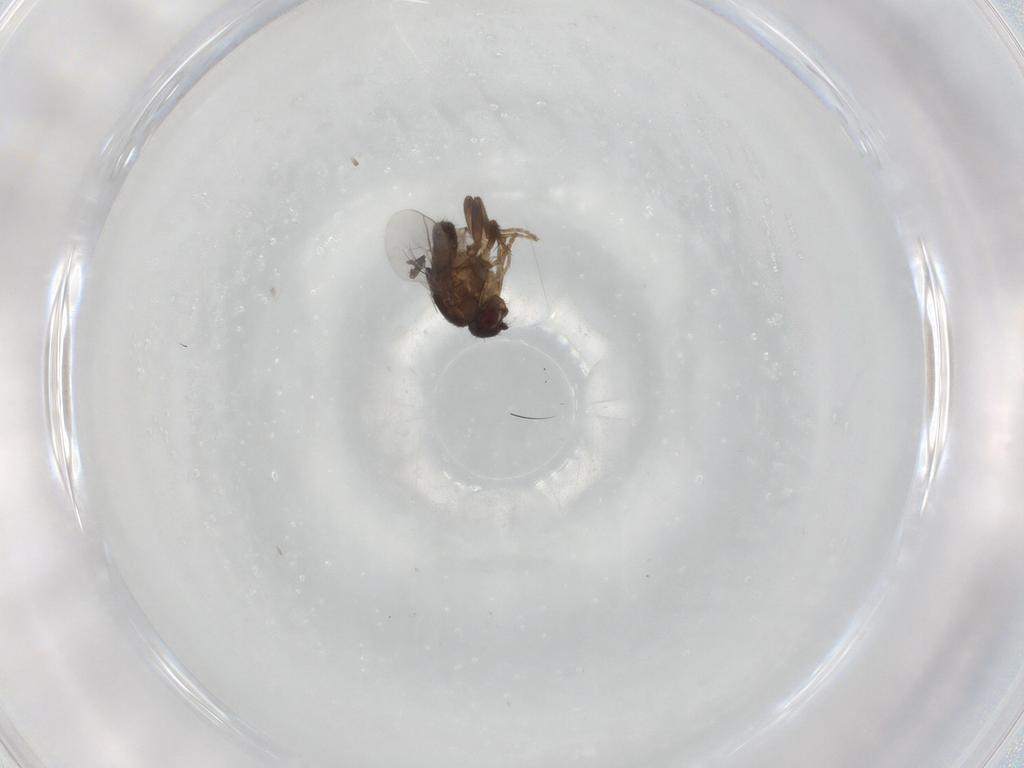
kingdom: Animalia
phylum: Arthropoda
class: Insecta
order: Diptera
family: Sphaeroceridae
